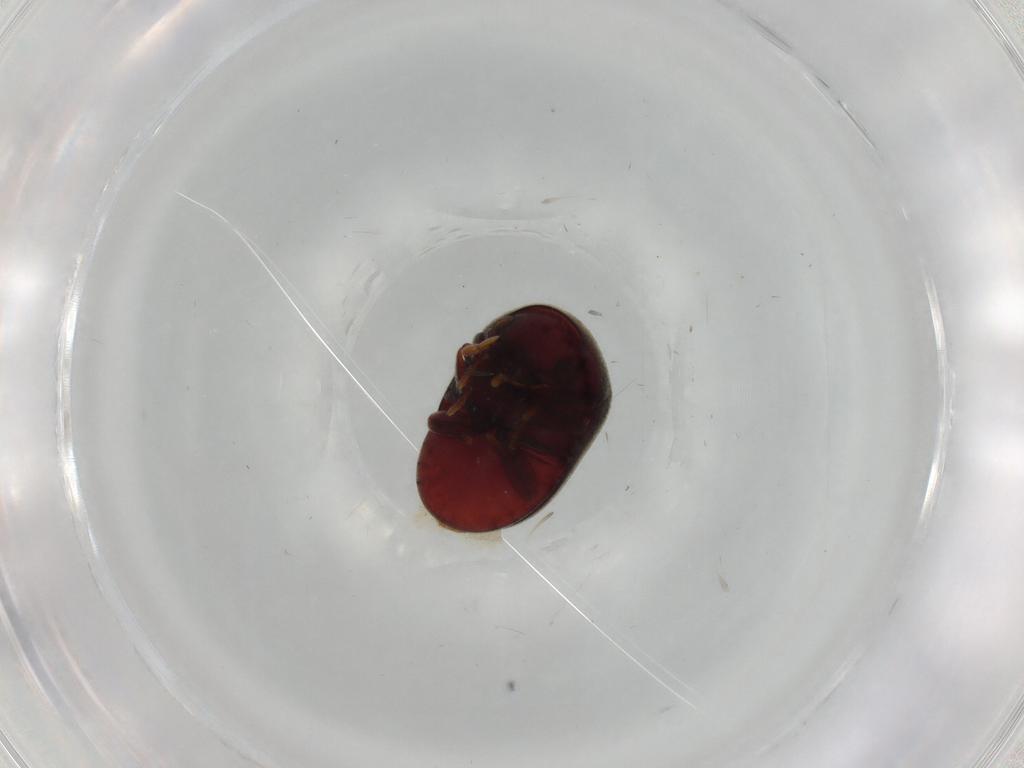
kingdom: Animalia
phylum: Arthropoda
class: Insecta
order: Coleoptera
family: Ptinidae
